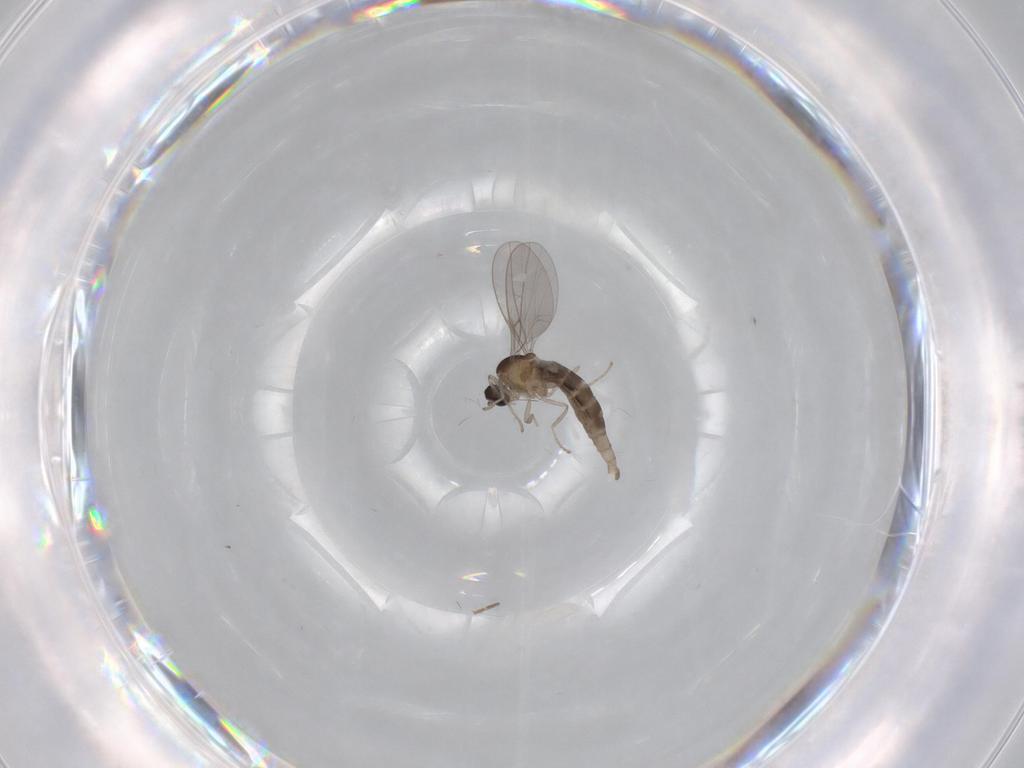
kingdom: Animalia
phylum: Arthropoda
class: Insecta
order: Diptera
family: Cecidomyiidae
